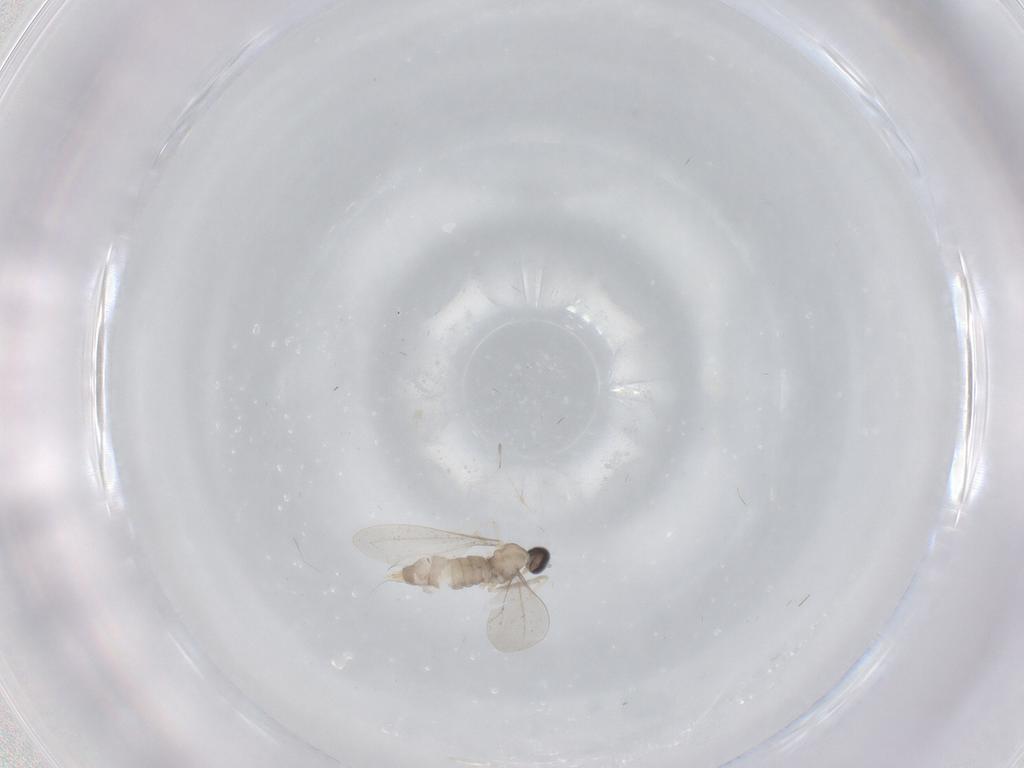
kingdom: Animalia
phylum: Arthropoda
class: Insecta
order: Diptera
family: Cecidomyiidae
